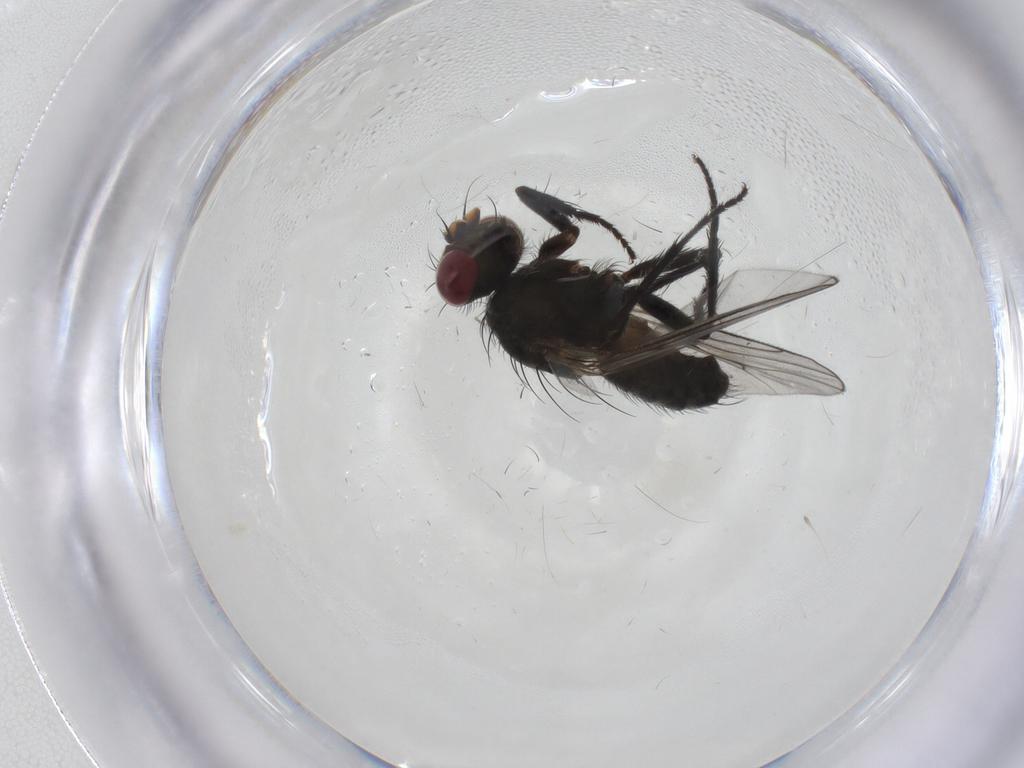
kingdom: Animalia
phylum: Arthropoda
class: Insecta
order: Diptera
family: Muscidae
